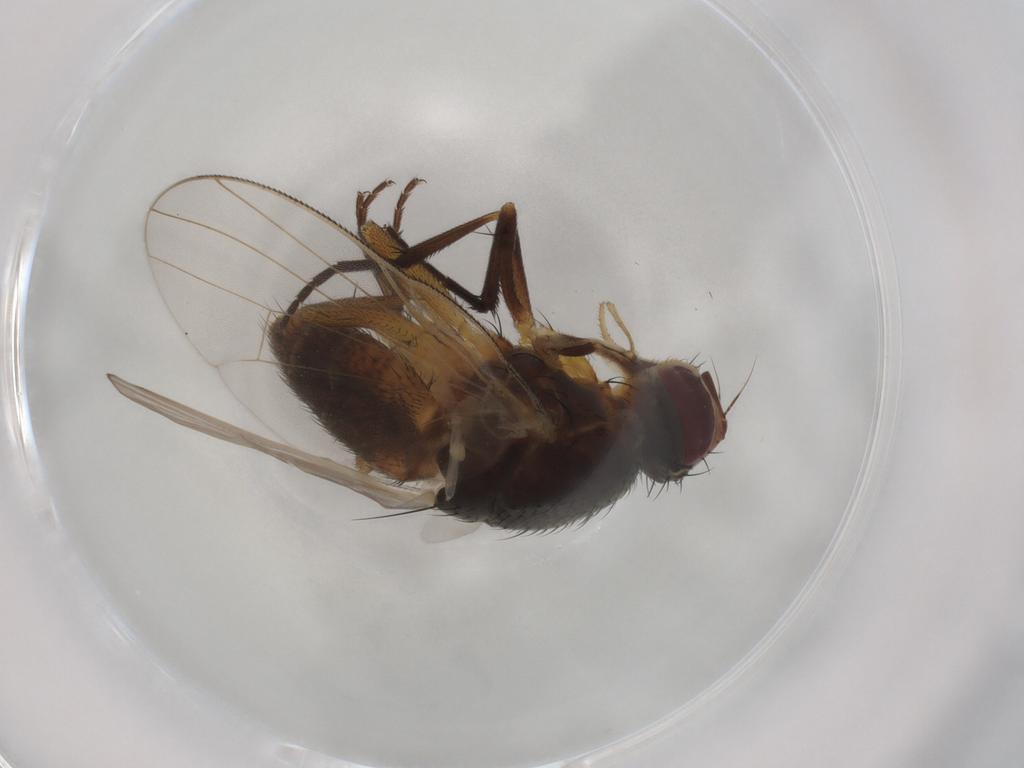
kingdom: Animalia
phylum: Arthropoda
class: Insecta
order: Diptera
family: Muscidae
